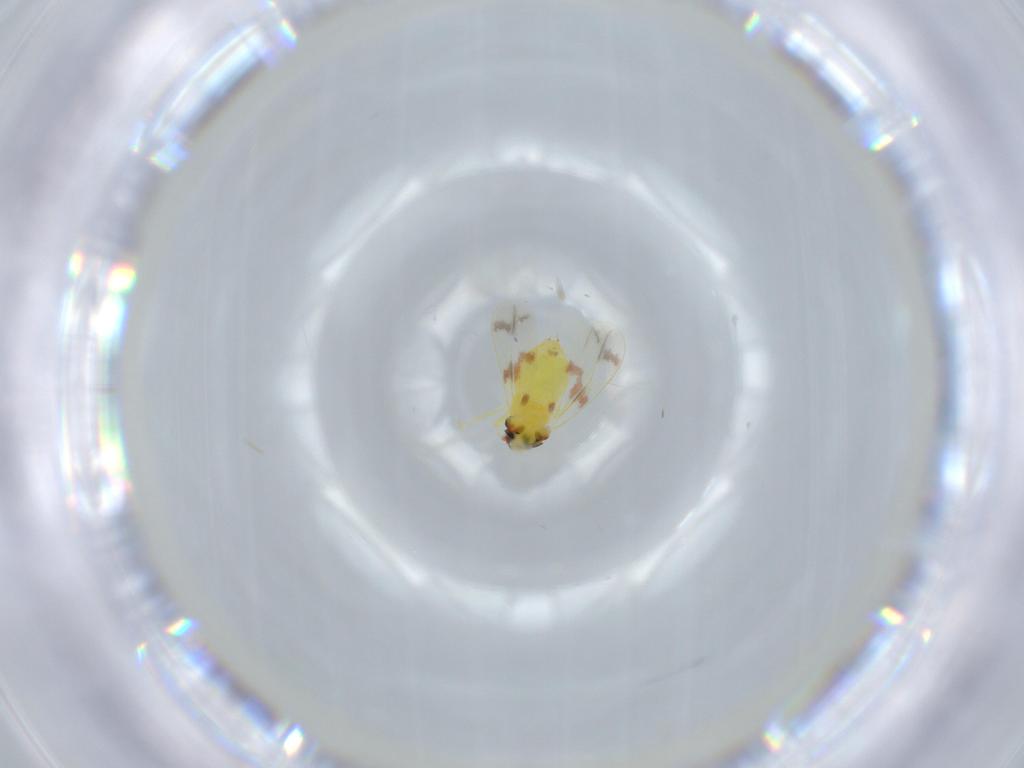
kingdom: Animalia
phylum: Arthropoda
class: Insecta
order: Hemiptera
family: Aleyrodidae
